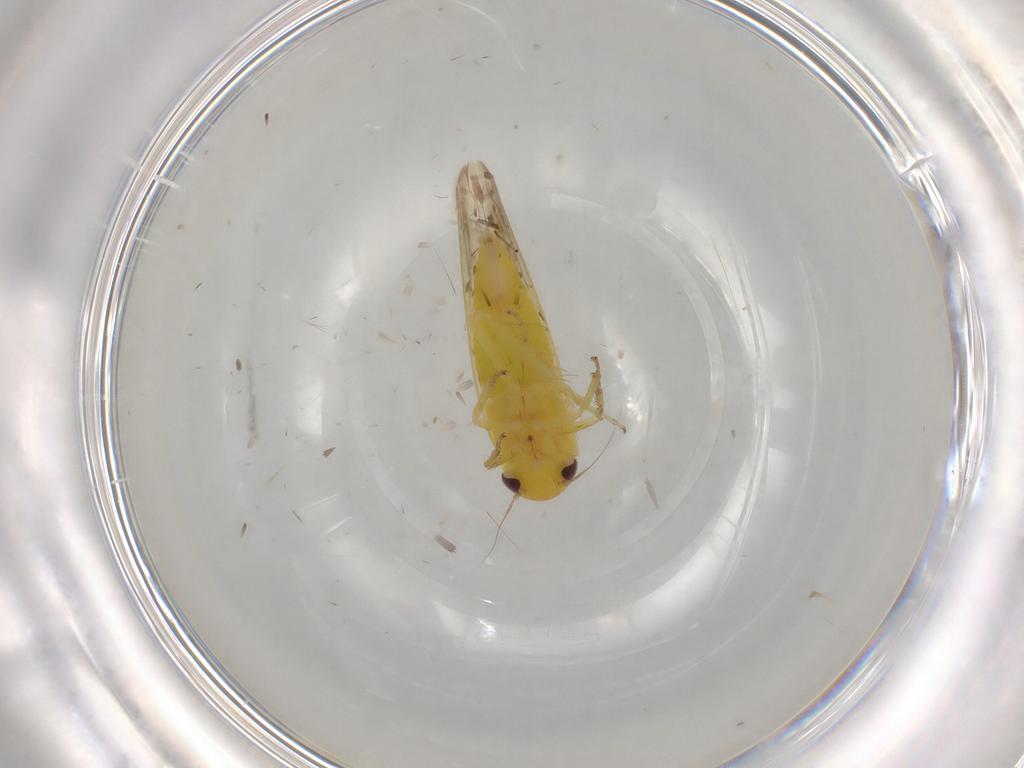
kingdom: Animalia
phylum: Arthropoda
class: Insecta
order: Hemiptera
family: Cicadellidae
